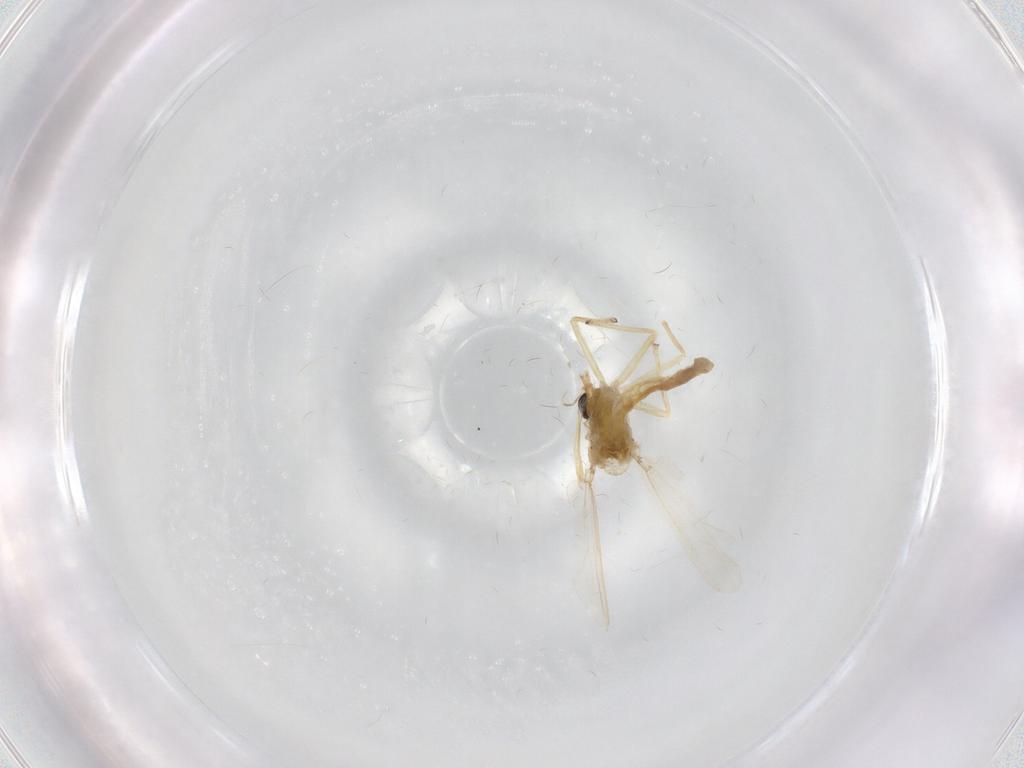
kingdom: Animalia
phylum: Arthropoda
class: Insecta
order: Diptera
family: Chironomidae
